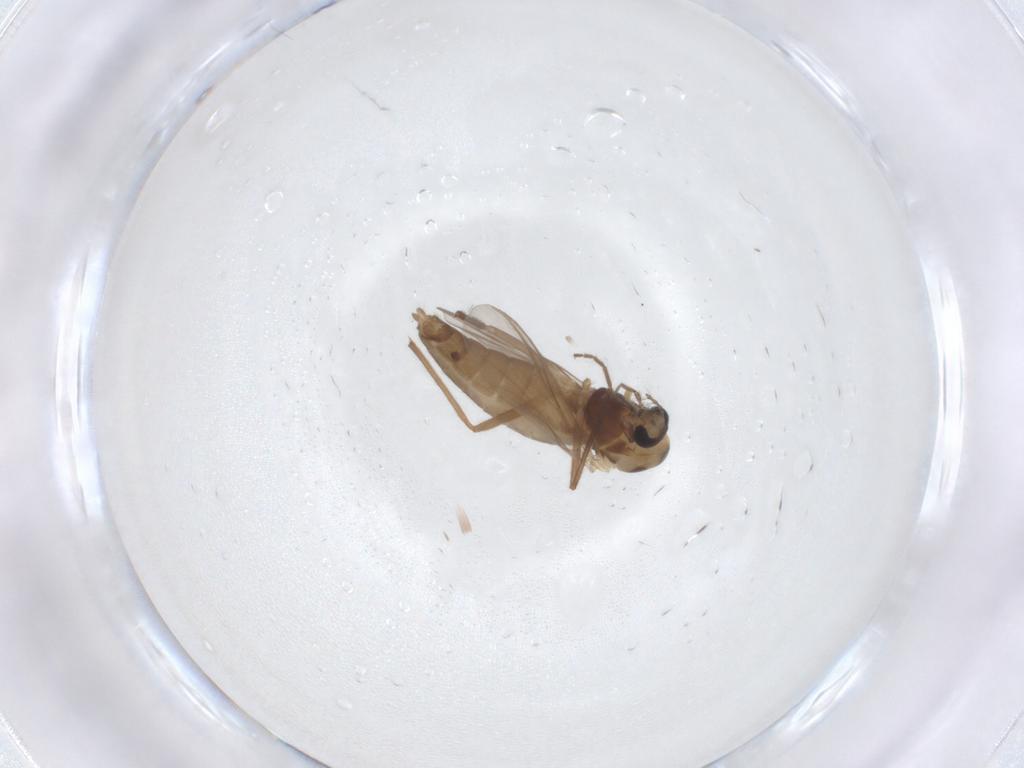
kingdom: Animalia
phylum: Arthropoda
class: Insecta
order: Diptera
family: Chironomidae
